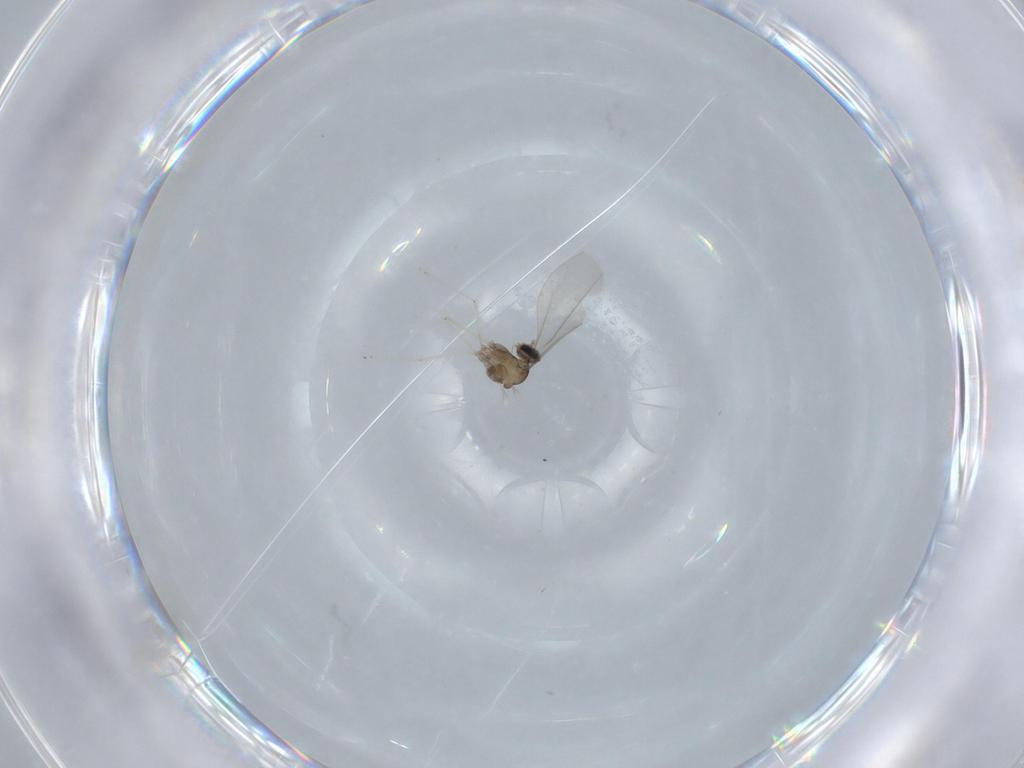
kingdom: Animalia
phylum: Arthropoda
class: Insecta
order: Diptera
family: Cecidomyiidae
